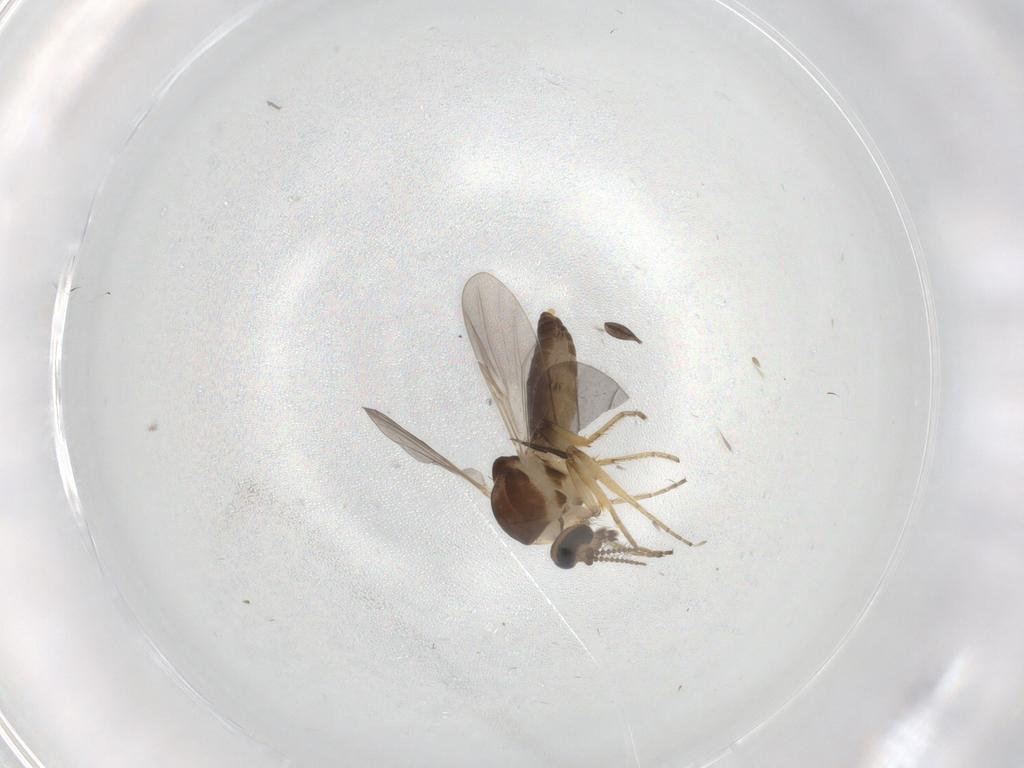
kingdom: Animalia
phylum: Arthropoda
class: Insecta
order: Diptera
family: Ceratopogonidae
